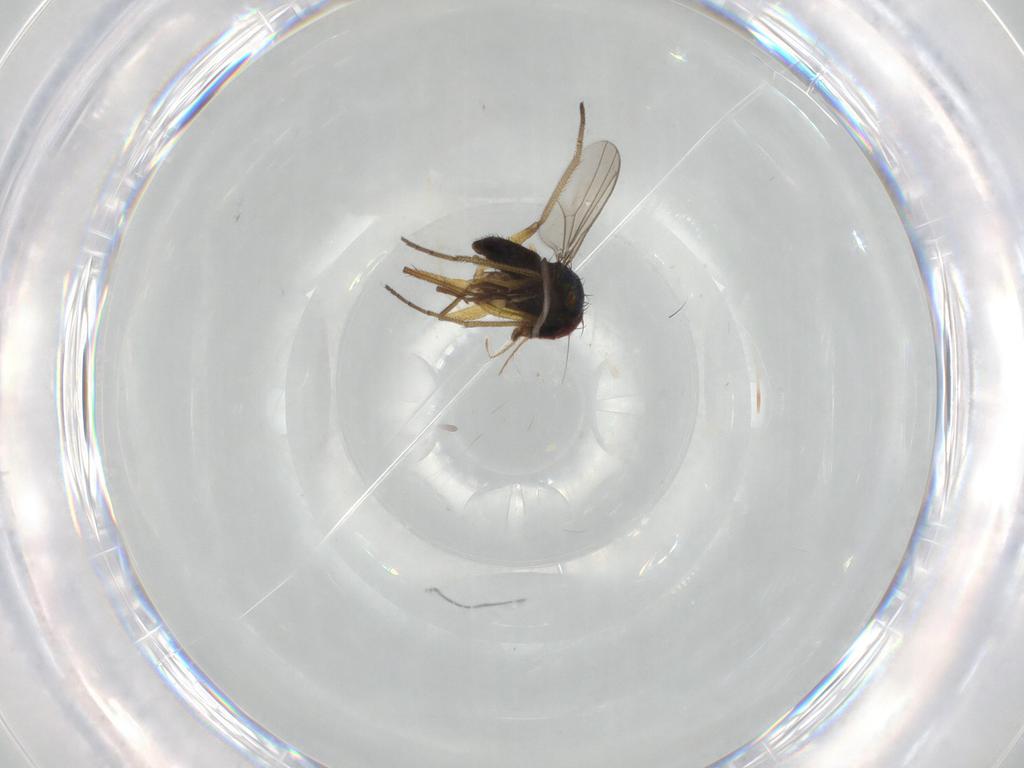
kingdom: Animalia
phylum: Arthropoda
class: Insecta
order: Diptera
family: Dolichopodidae
